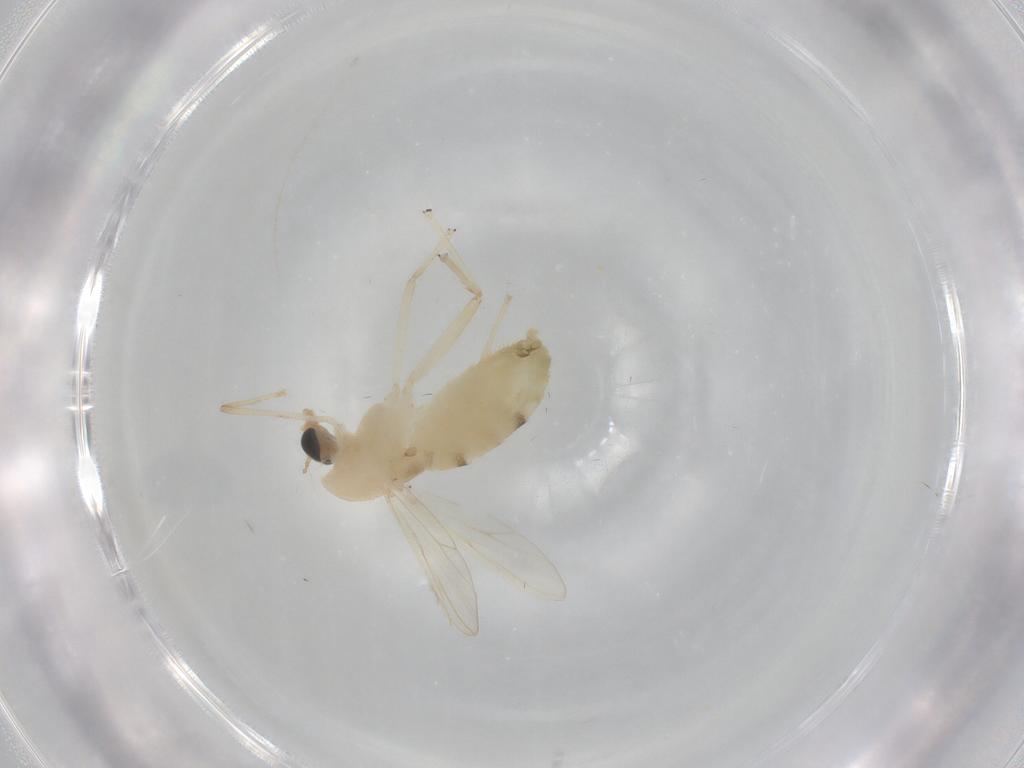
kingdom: Animalia
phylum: Arthropoda
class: Insecta
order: Diptera
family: Chironomidae
